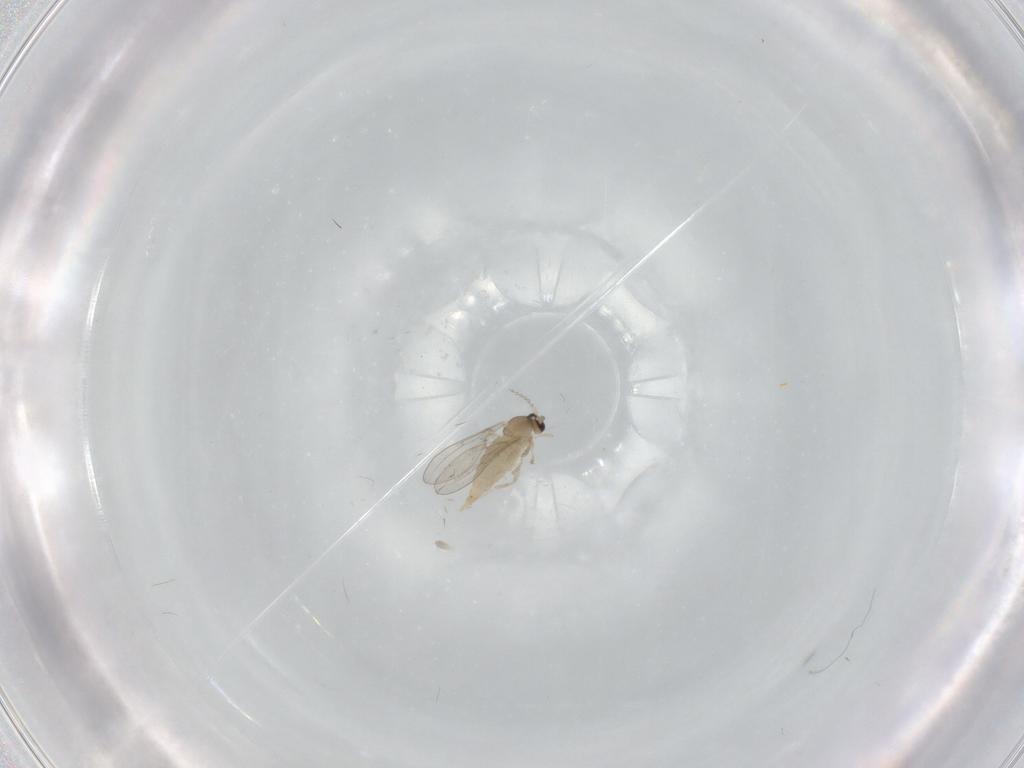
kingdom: Animalia
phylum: Arthropoda
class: Insecta
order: Diptera
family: Cecidomyiidae
